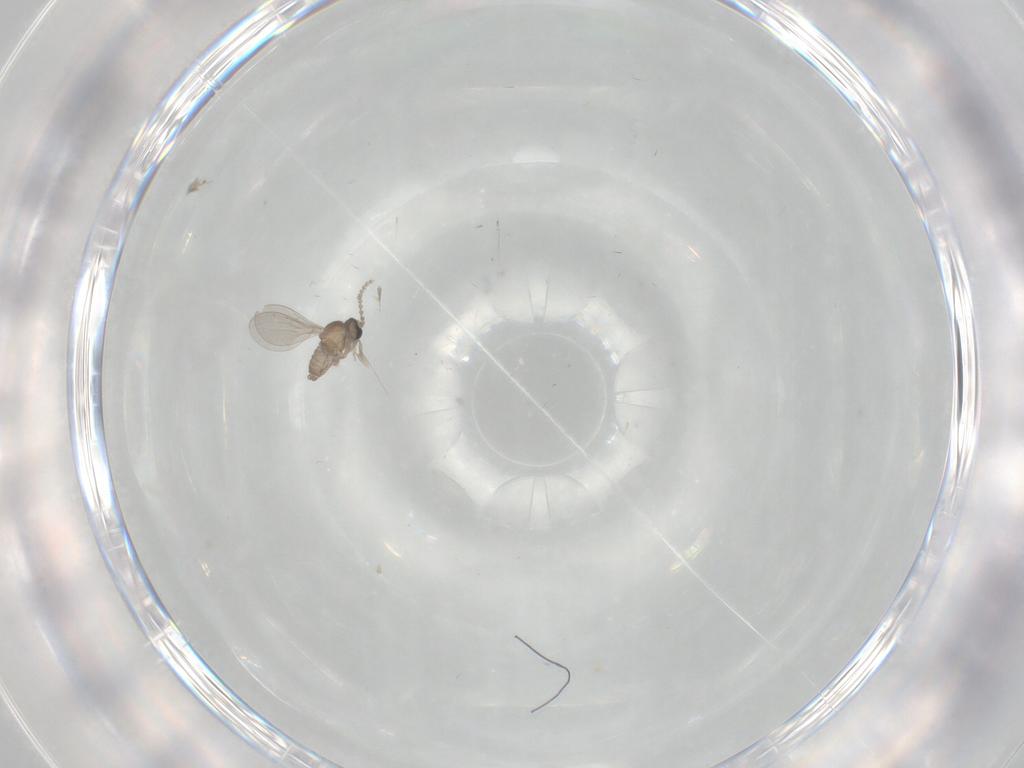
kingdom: Animalia
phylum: Arthropoda
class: Insecta
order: Diptera
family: Cecidomyiidae
